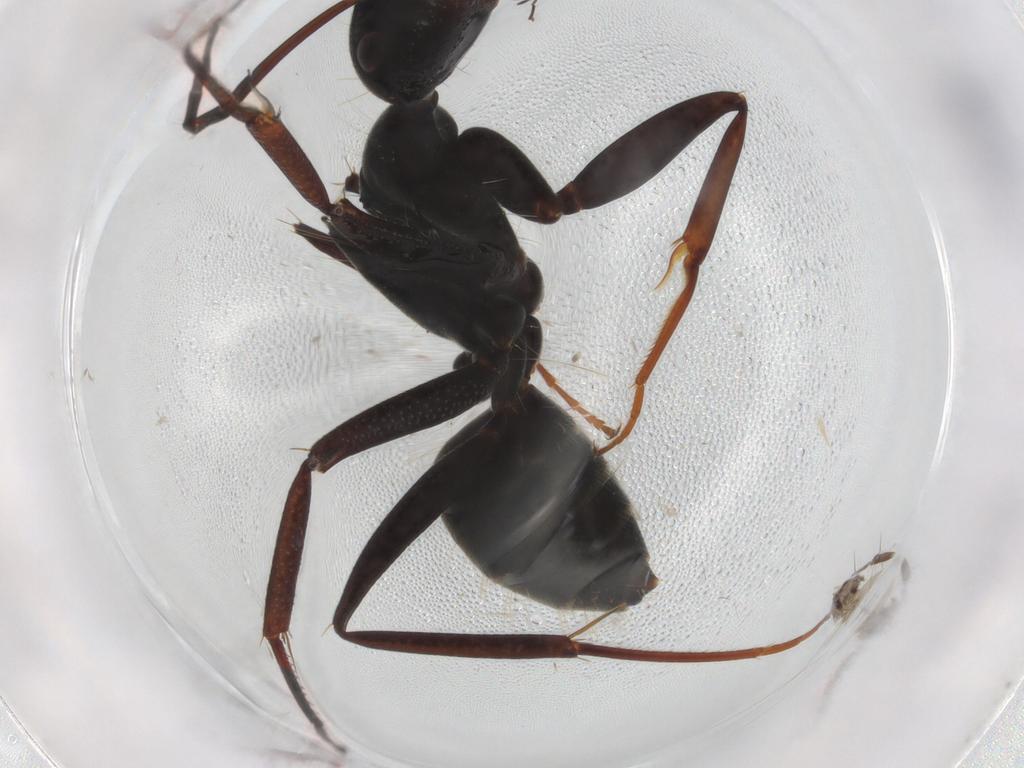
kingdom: Animalia
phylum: Arthropoda
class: Insecta
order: Hymenoptera
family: Formicidae
